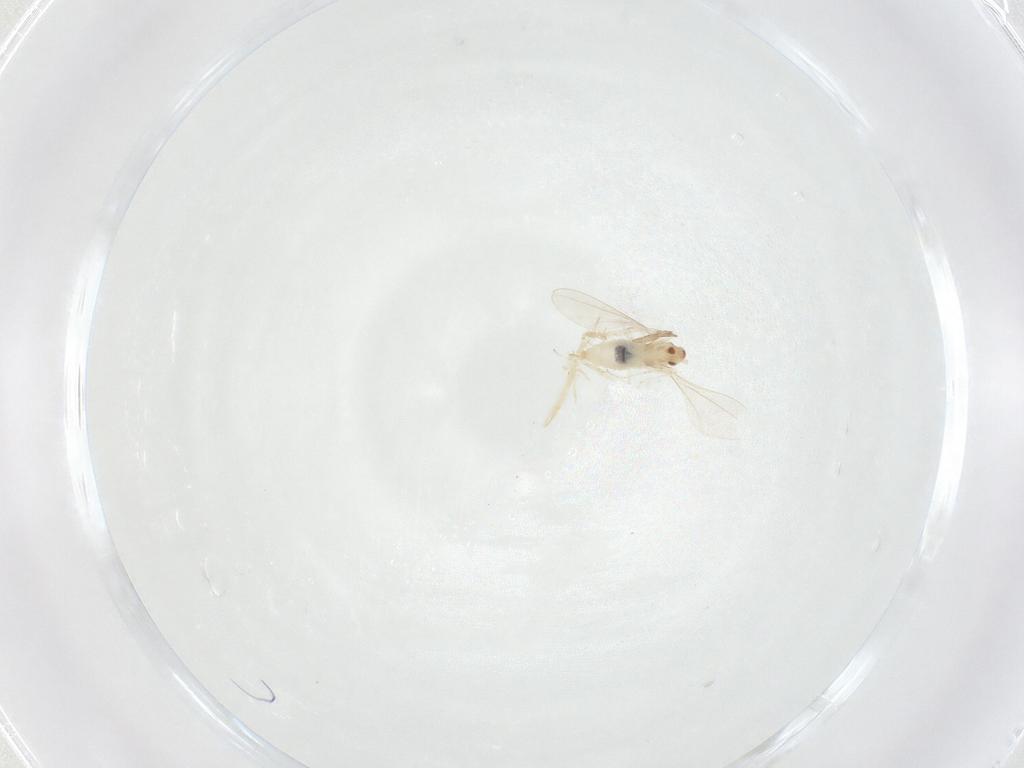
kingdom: Animalia
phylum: Arthropoda
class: Insecta
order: Diptera
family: Cecidomyiidae
